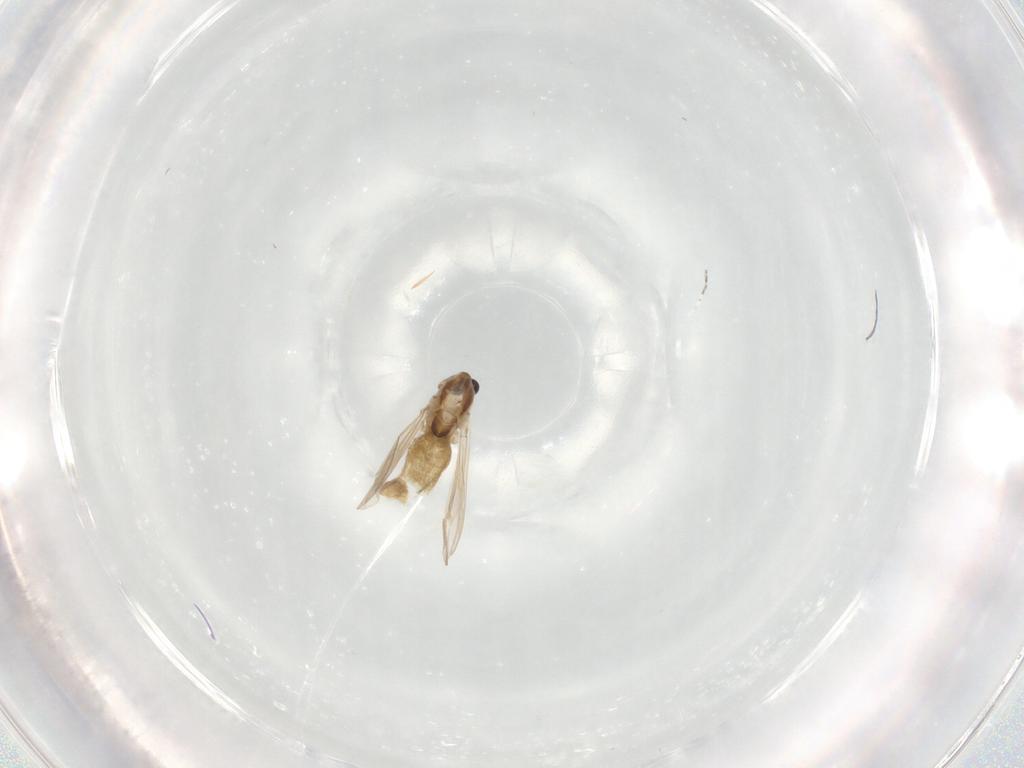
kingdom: Animalia
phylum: Arthropoda
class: Insecta
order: Diptera
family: Chironomidae
